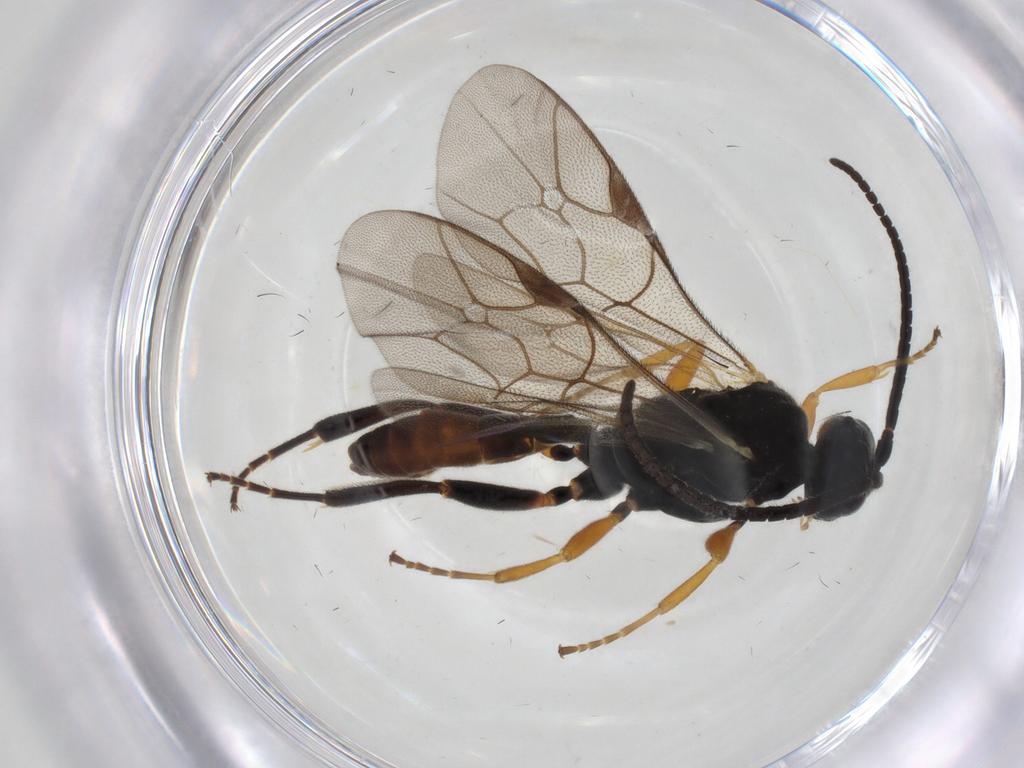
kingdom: Animalia
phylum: Arthropoda
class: Insecta
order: Hymenoptera
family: Ichneumonidae
